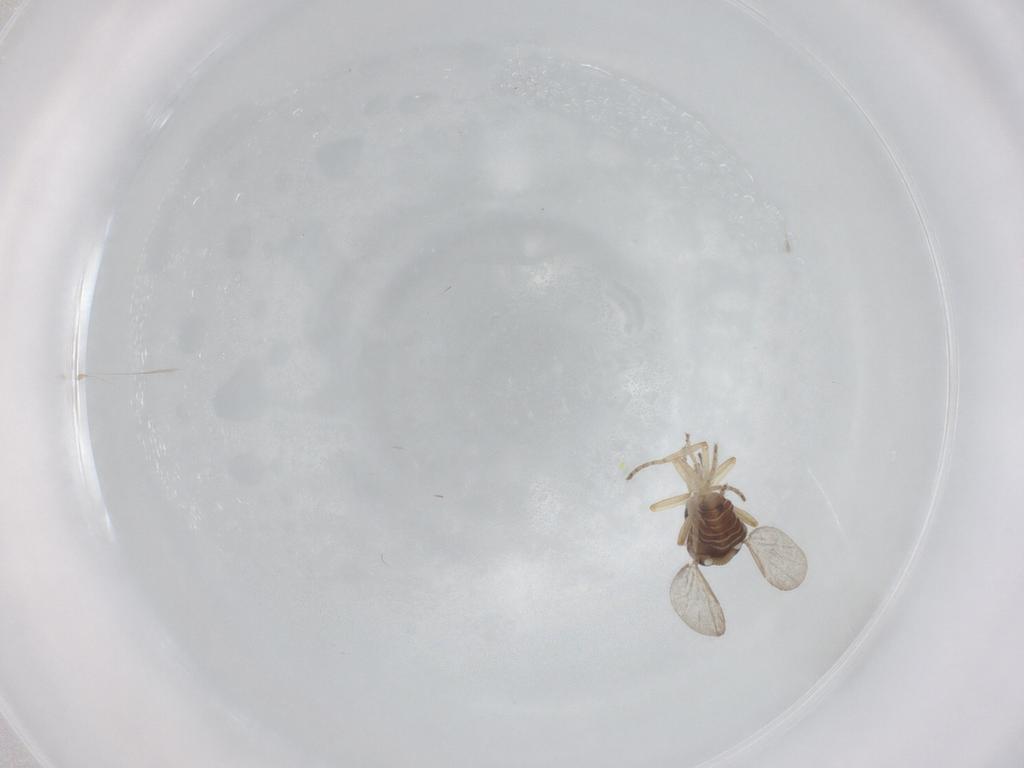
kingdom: Animalia
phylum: Arthropoda
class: Insecta
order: Diptera
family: Ceratopogonidae
